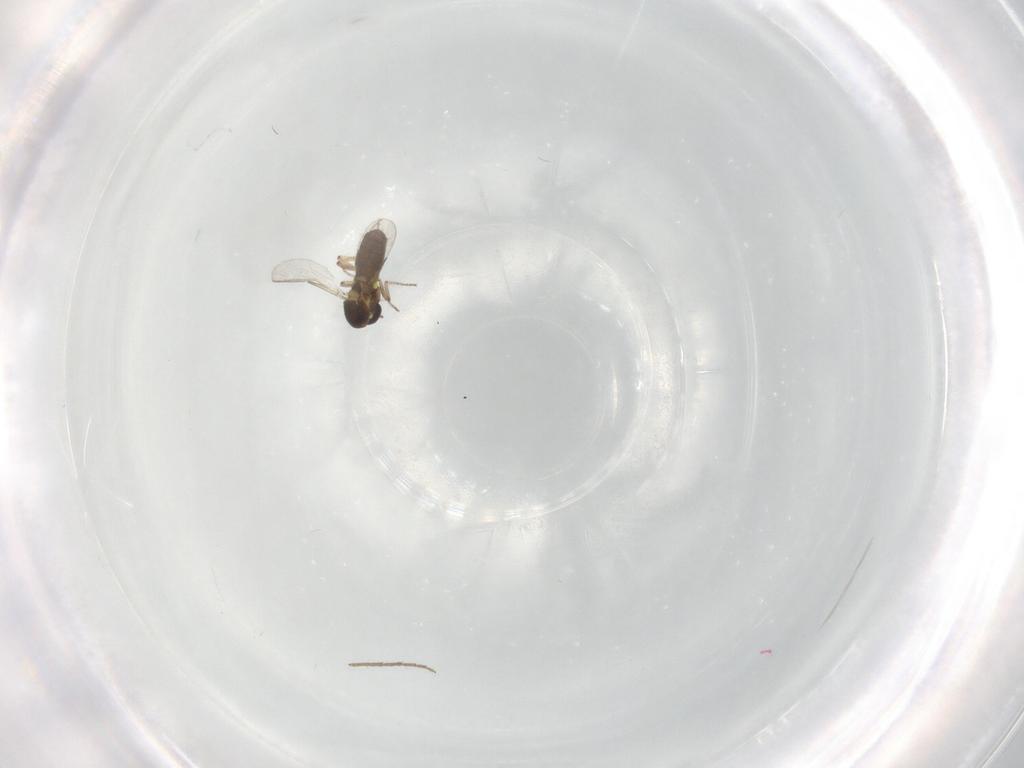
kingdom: Animalia
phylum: Arthropoda
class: Insecta
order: Diptera
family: Ceratopogonidae
